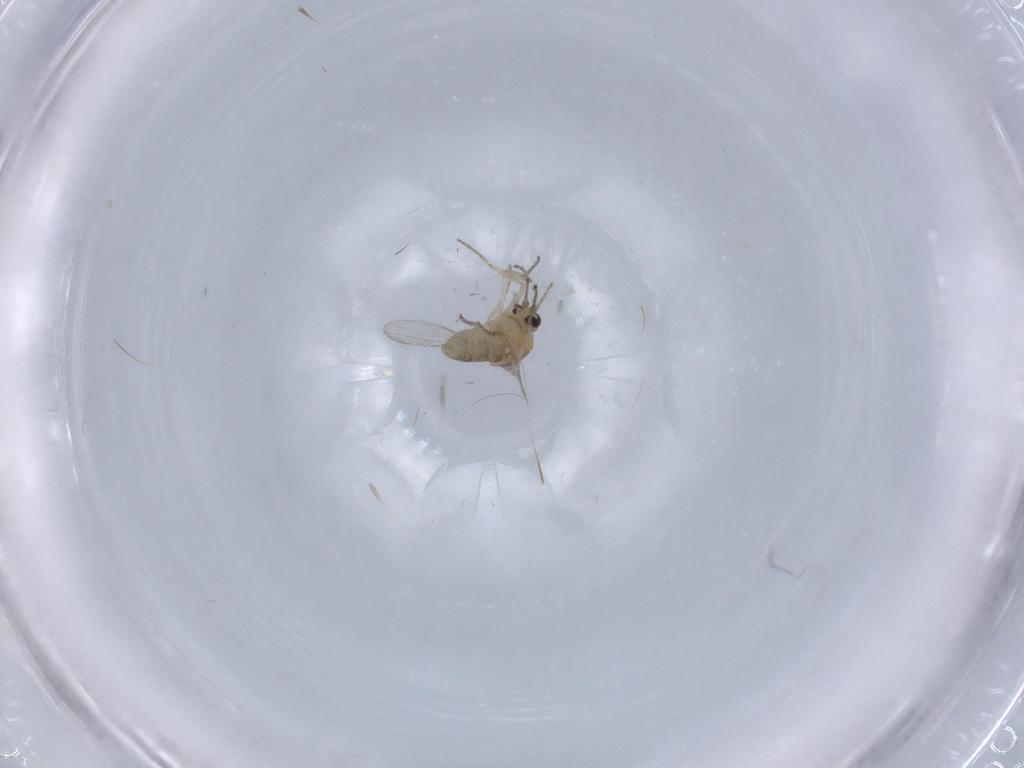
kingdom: Animalia
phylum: Arthropoda
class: Insecta
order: Diptera
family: Ceratopogonidae
